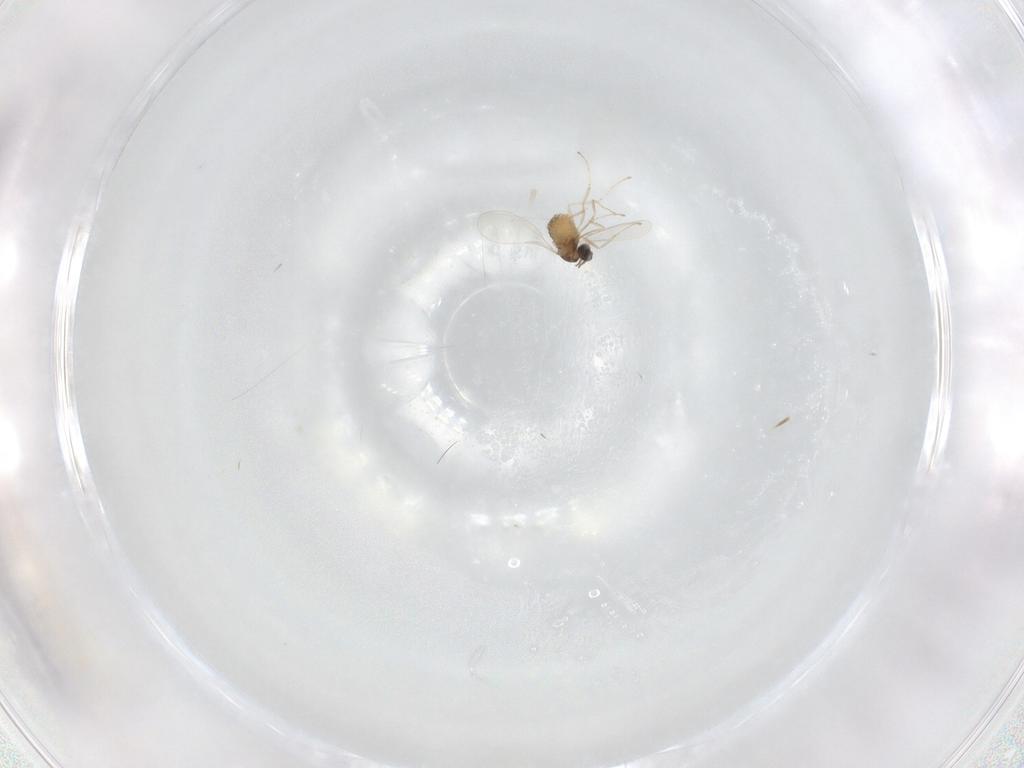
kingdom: Animalia
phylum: Arthropoda
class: Insecta
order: Diptera
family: Cecidomyiidae
